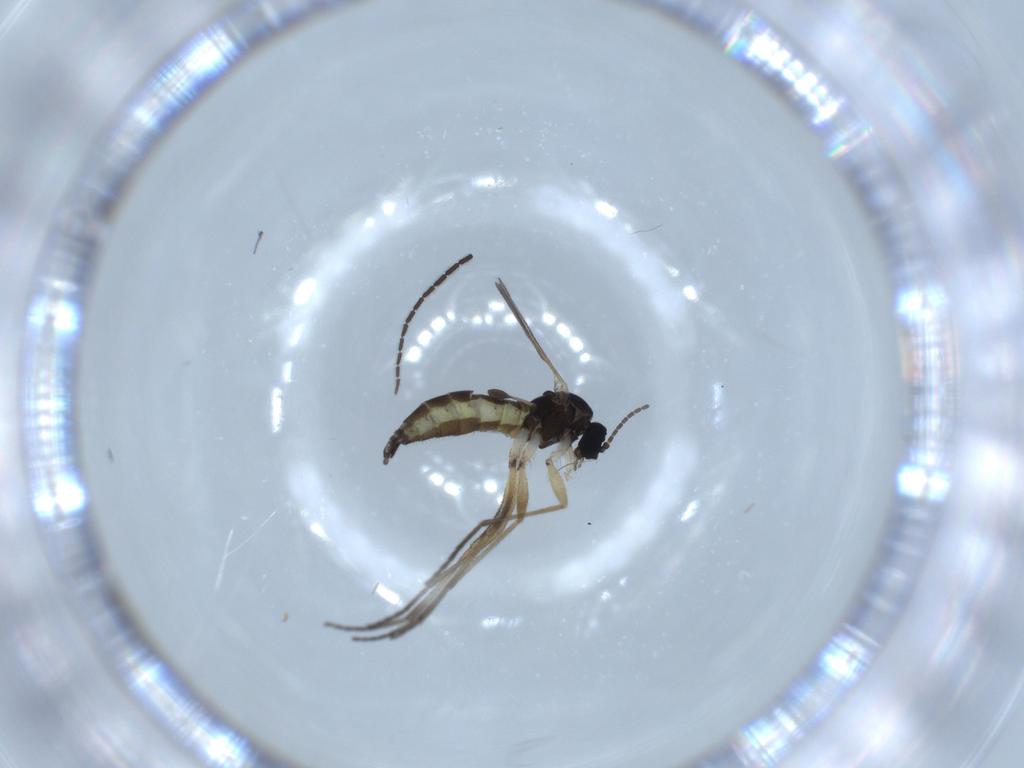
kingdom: Animalia
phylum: Arthropoda
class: Insecta
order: Diptera
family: Sciaridae
